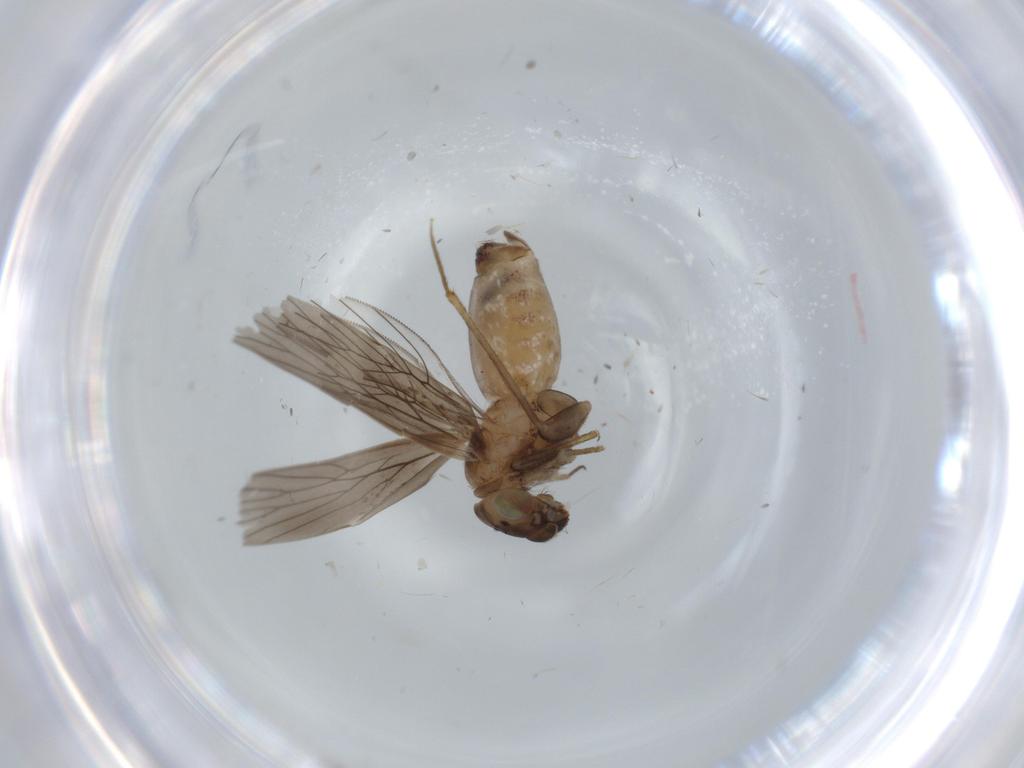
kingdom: Animalia
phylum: Arthropoda
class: Insecta
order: Psocodea
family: Lepidopsocidae
